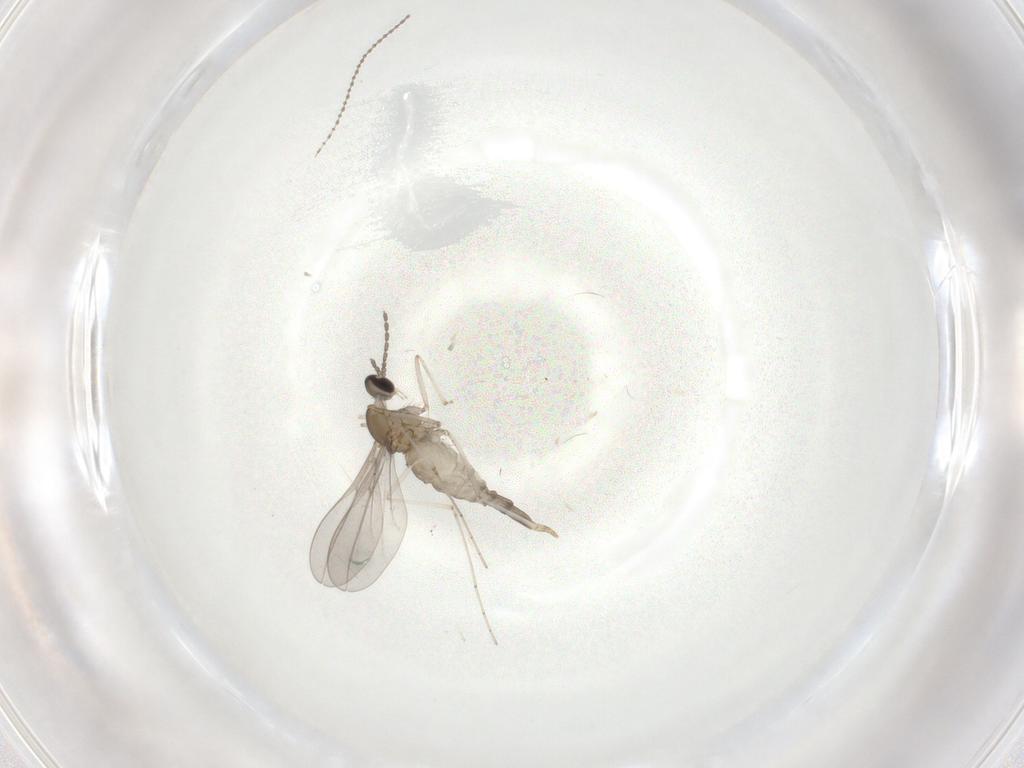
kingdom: Animalia
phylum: Arthropoda
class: Insecta
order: Diptera
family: Cecidomyiidae
